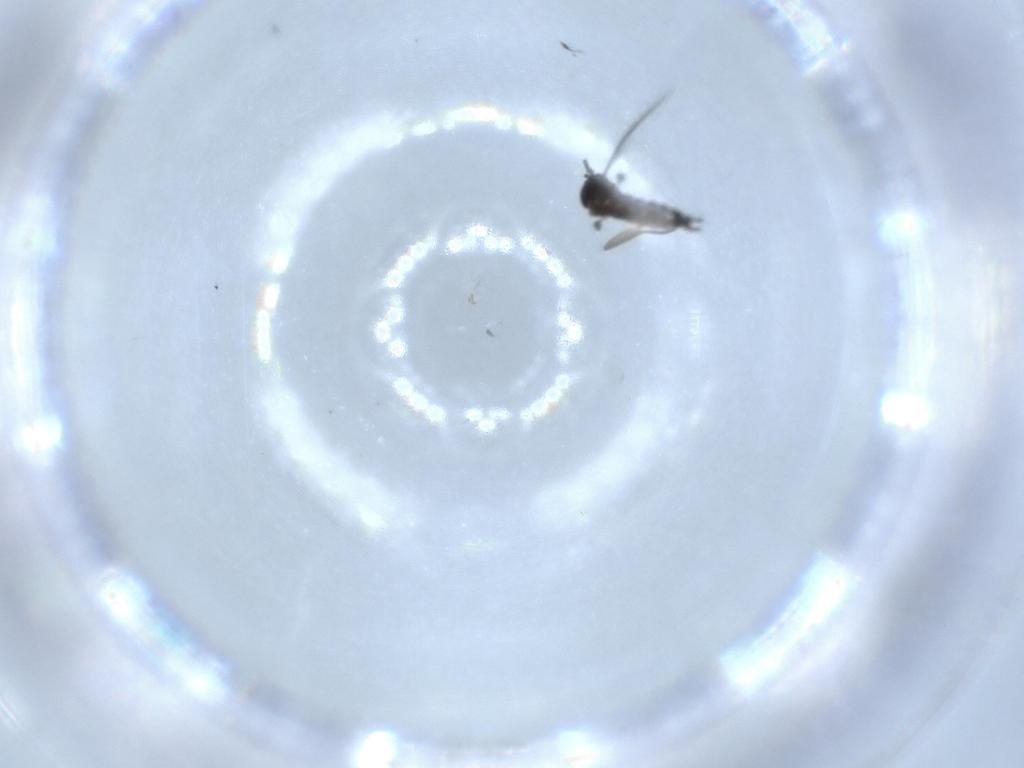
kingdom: Animalia
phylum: Arthropoda
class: Insecta
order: Diptera
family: Sciaridae
